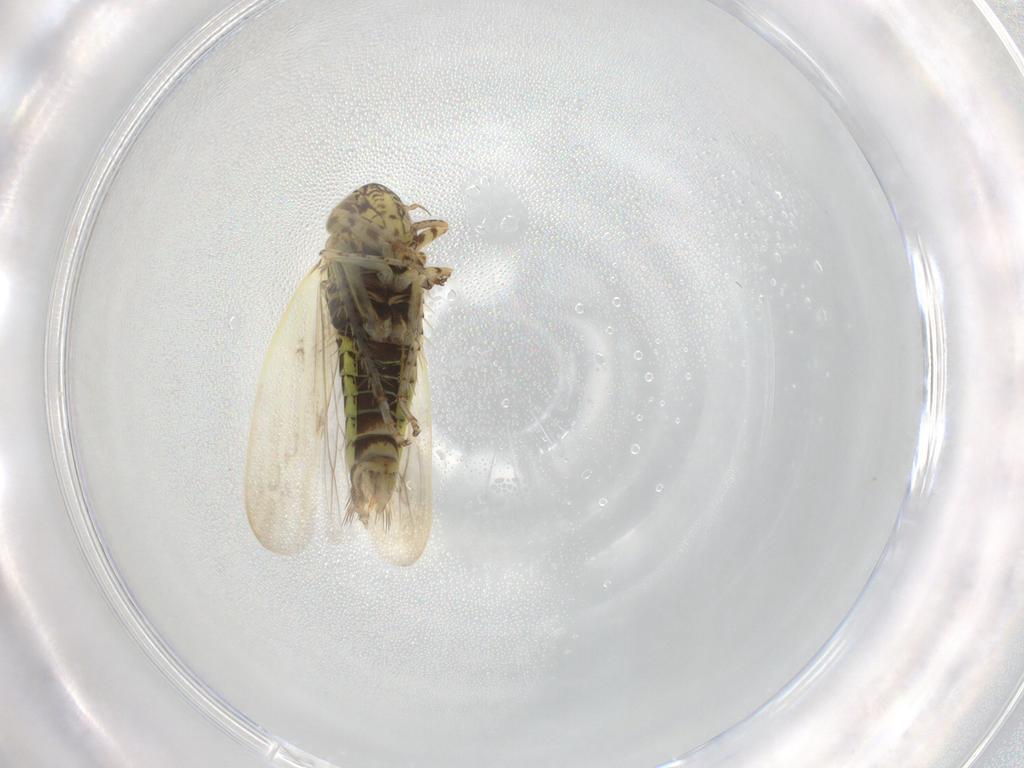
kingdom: Animalia
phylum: Arthropoda
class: Insecta
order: Hemiptera
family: Cicadellidae
